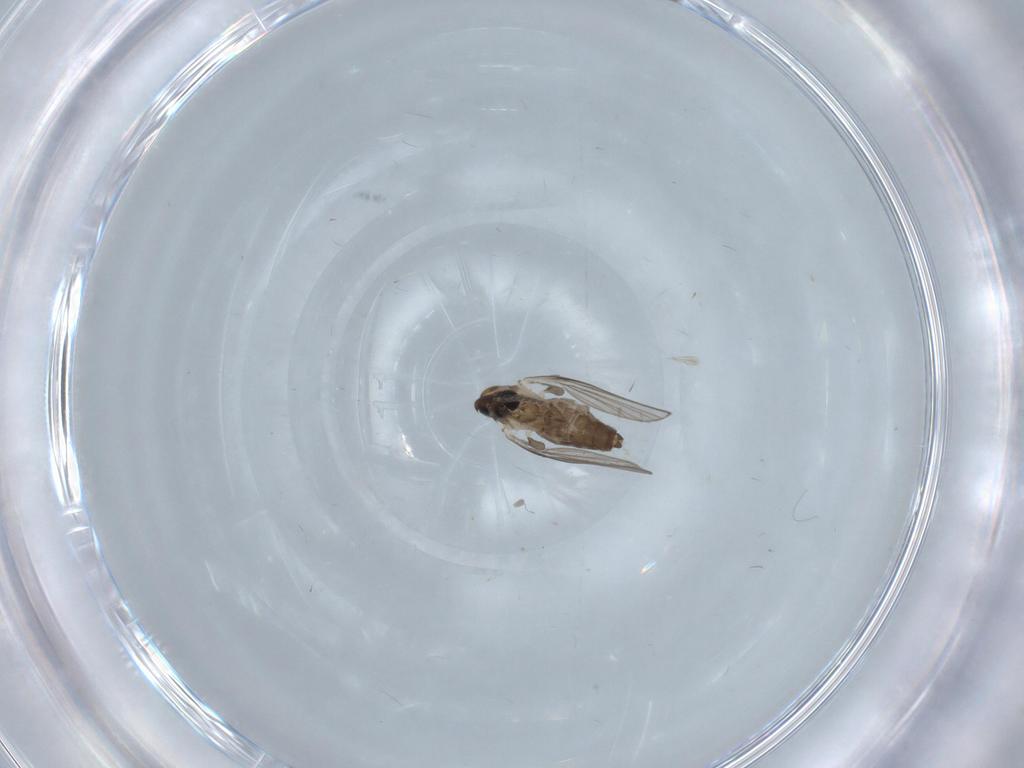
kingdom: Animalia
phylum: Arthropoda
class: Insecta
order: Diptera
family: Psychodidae
